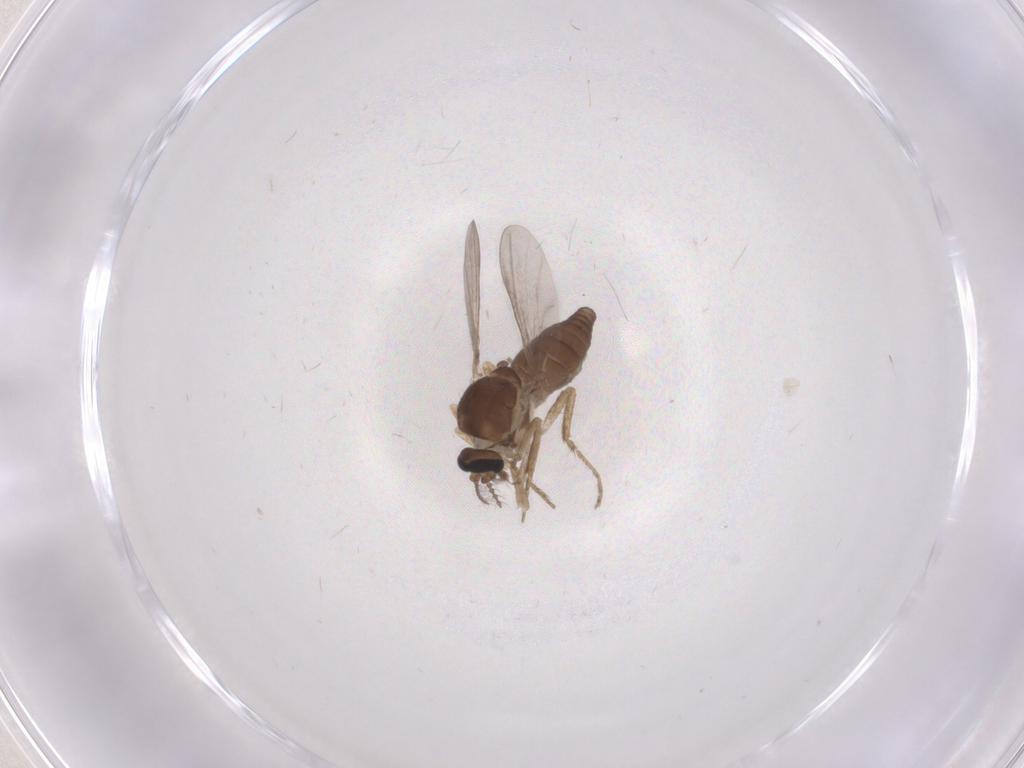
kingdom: Animalia
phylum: Arthropoda
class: Insecta
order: Diptera
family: Ceratopogonidae
